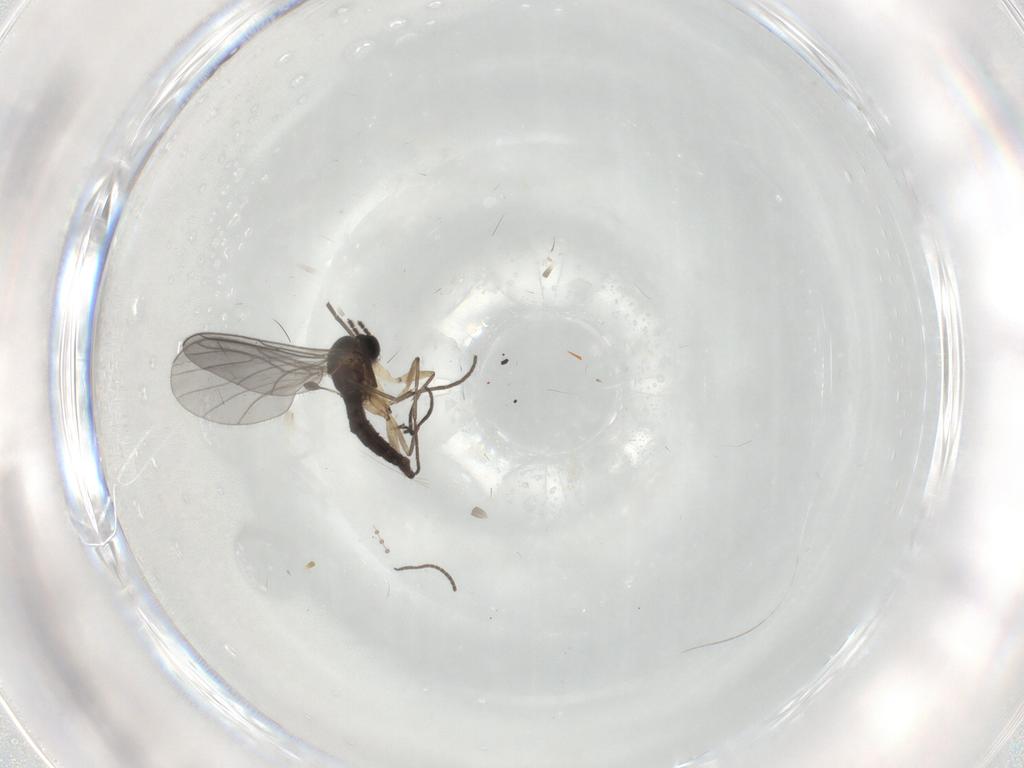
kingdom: Animalia
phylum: Arthropoda
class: Insecta
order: Diptera
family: Sciaridae
